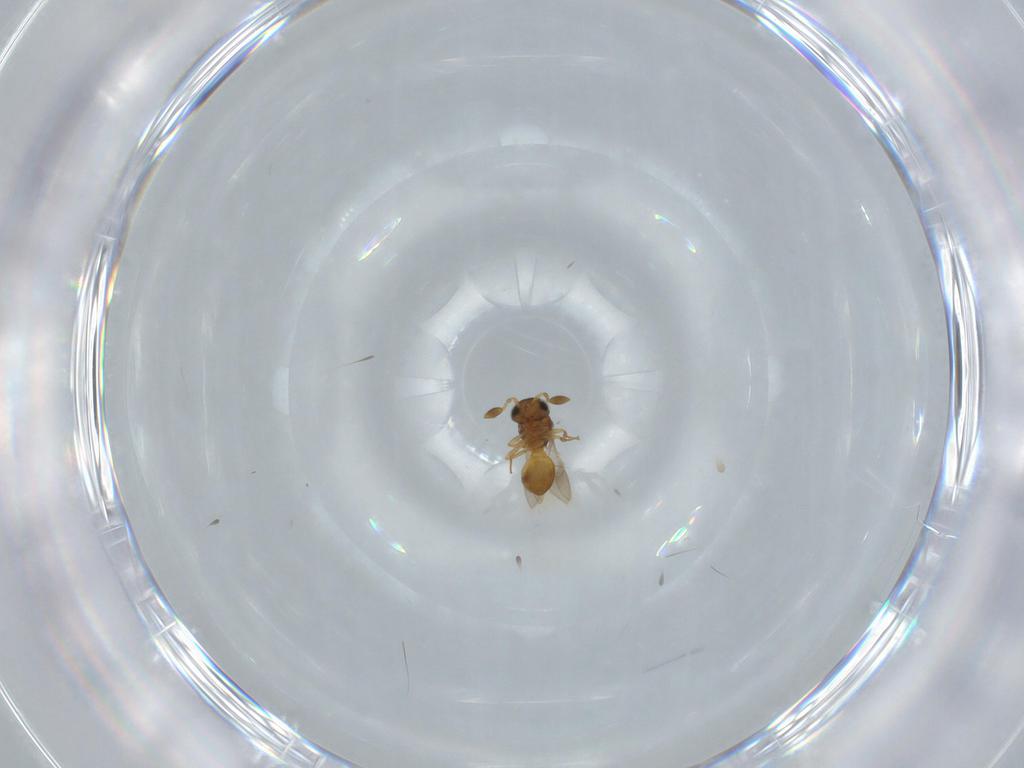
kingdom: Animalia
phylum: Arthropoda
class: Insecta
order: Hymenoptera
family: Scelionidae
